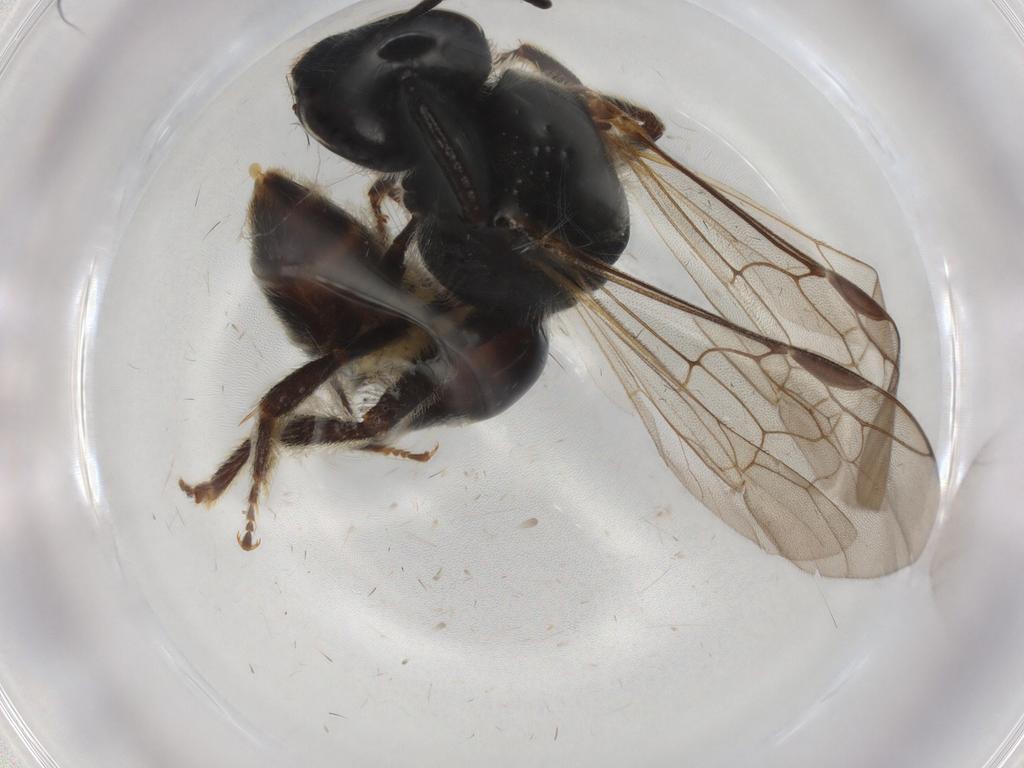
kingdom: Animalia
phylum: Arthropoda
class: Insecta
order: Hymenoptera
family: Halictidae
